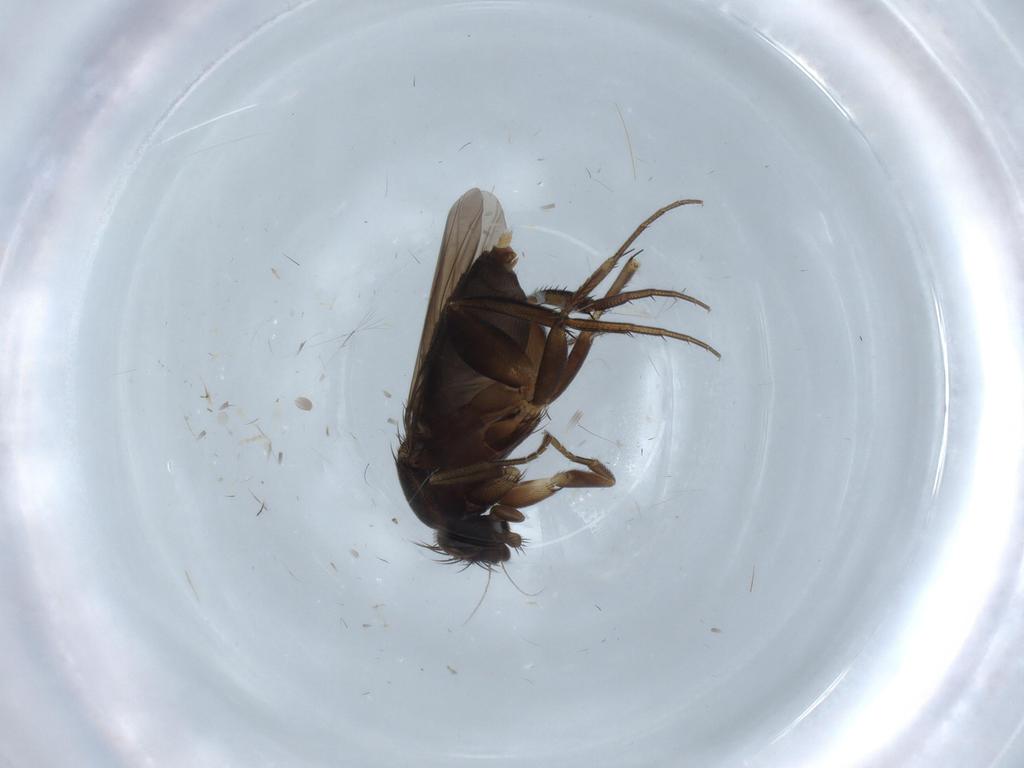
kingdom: Animalia
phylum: Arthropoda
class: Insecta
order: Diptera
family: Phoridae
